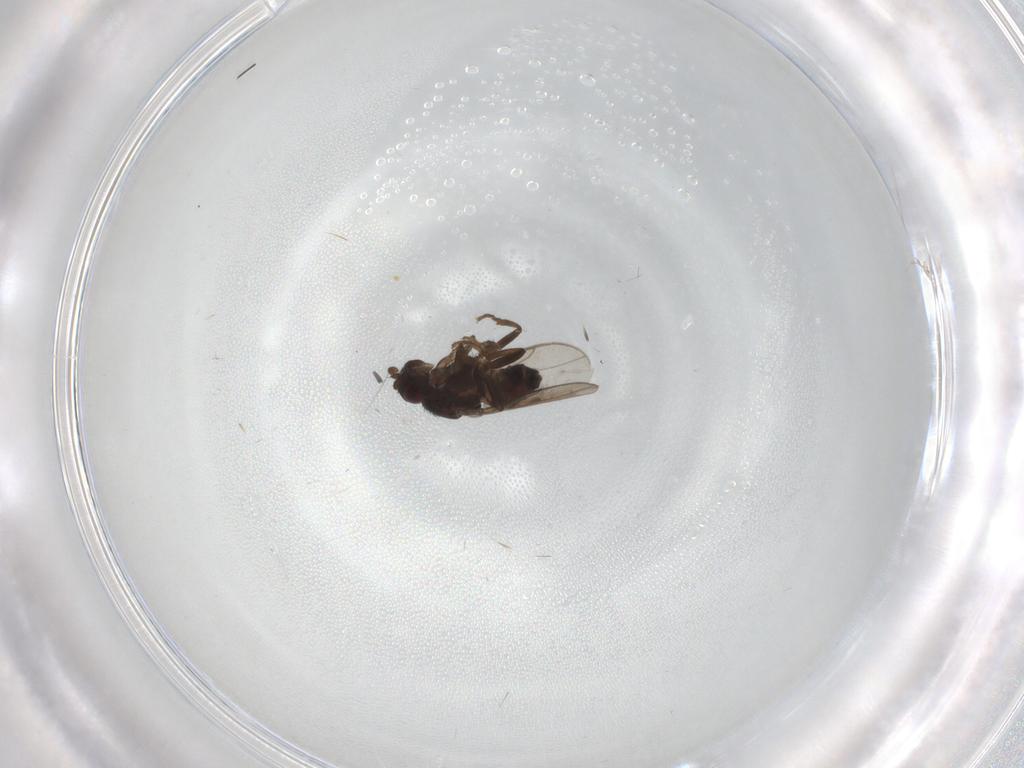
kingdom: Animalia
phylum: Arthropoda
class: Insecta
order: Diptera
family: Sphaeroceridae
